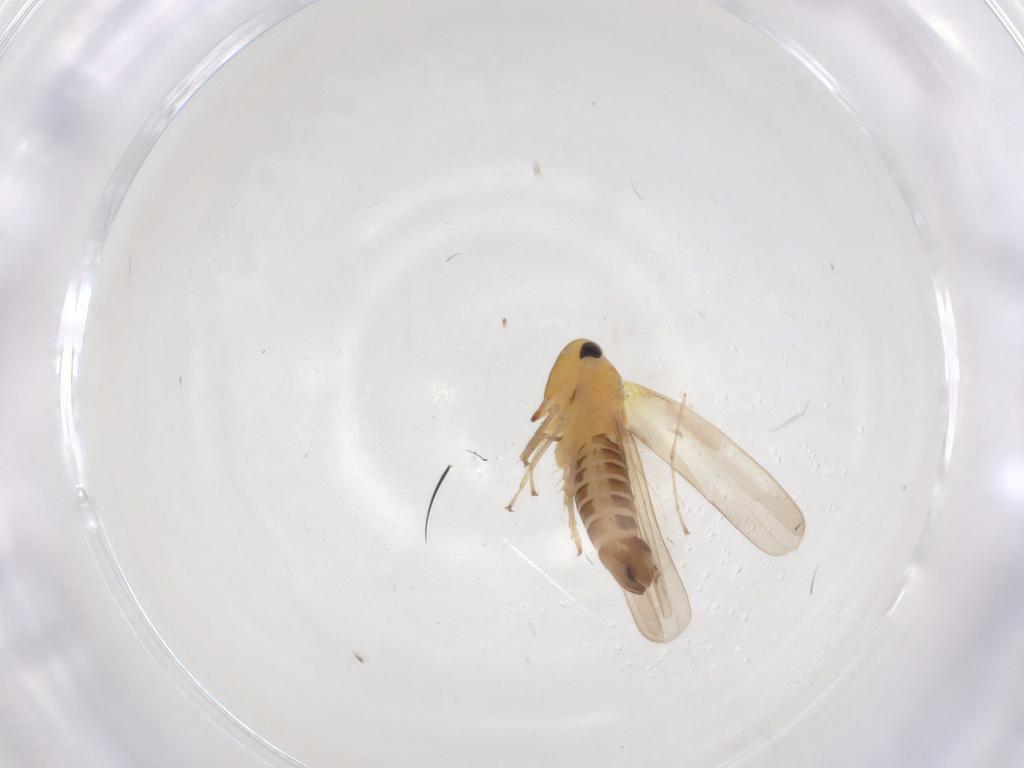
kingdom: Animalia
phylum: Arthropoda
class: Insecta
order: Hemiptera
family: Cicadellidae
